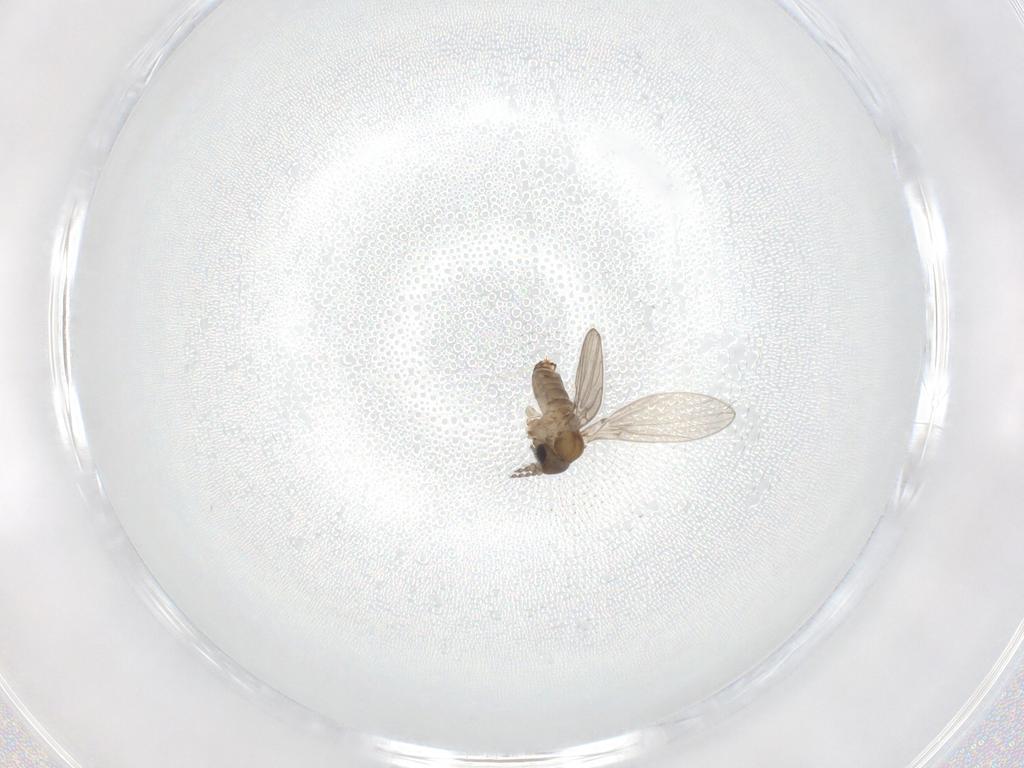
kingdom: Animalia
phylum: Arthropoda
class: Insecta
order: Diptera
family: Psychodidae
